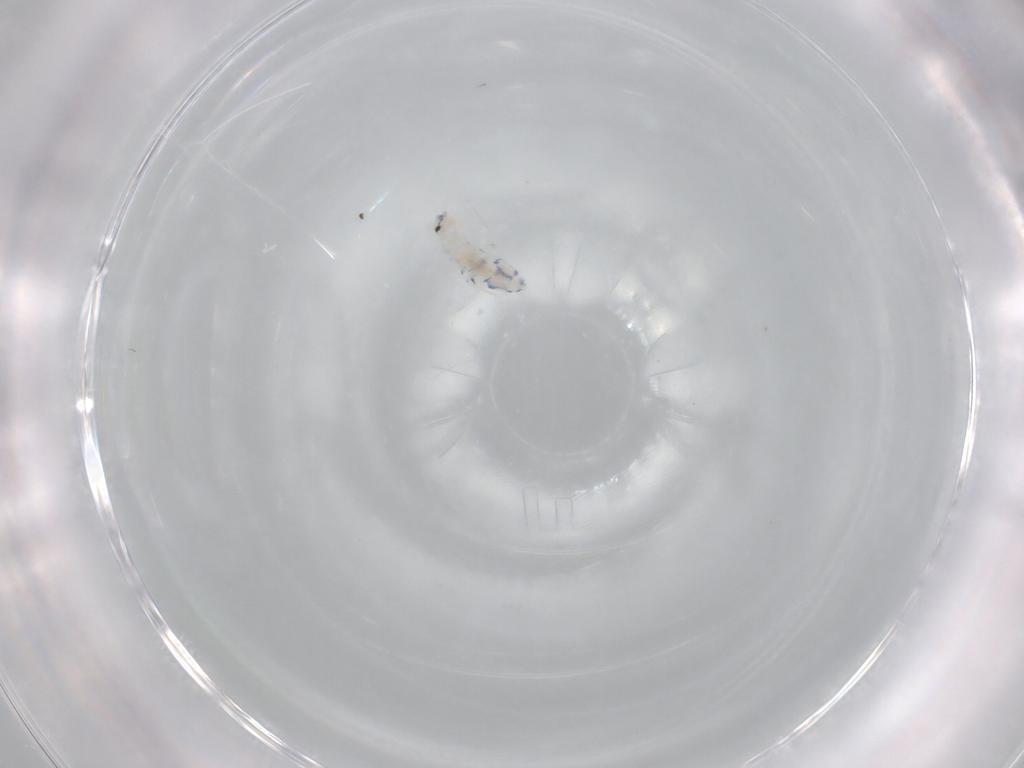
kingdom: Animalia
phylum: Arthropoda
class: Collembola
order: Entomobryomorpha
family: Entomobryidae
